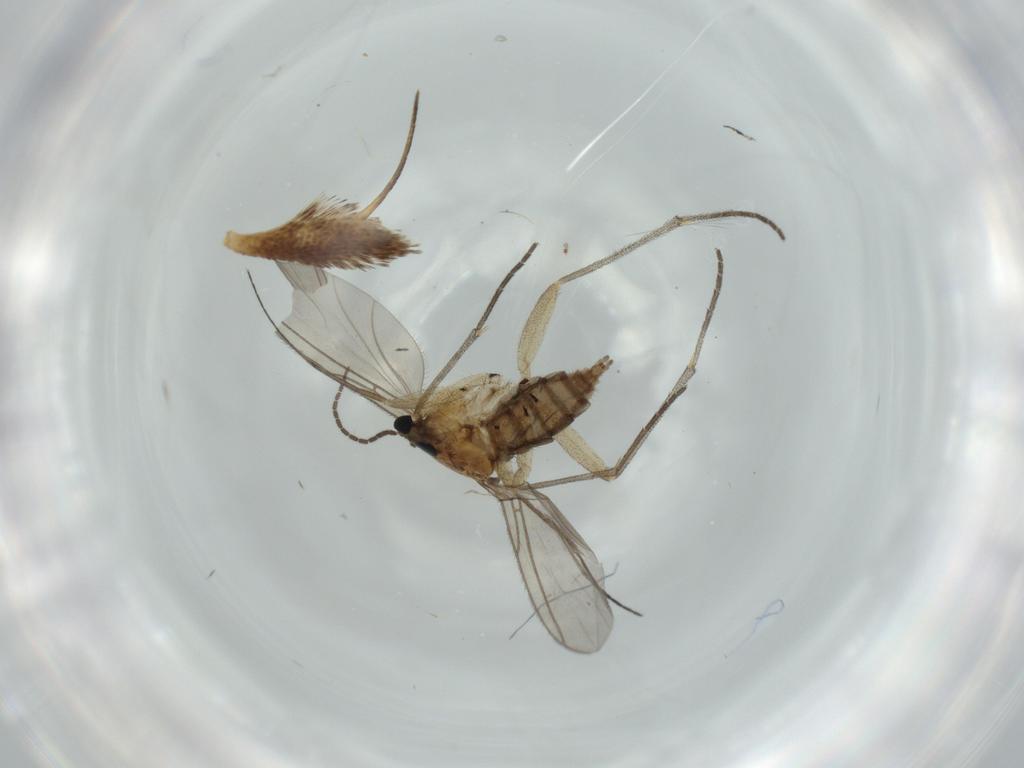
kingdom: Animalia
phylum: Arthropoda
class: Insecta
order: Diptera
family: Sciaridae
